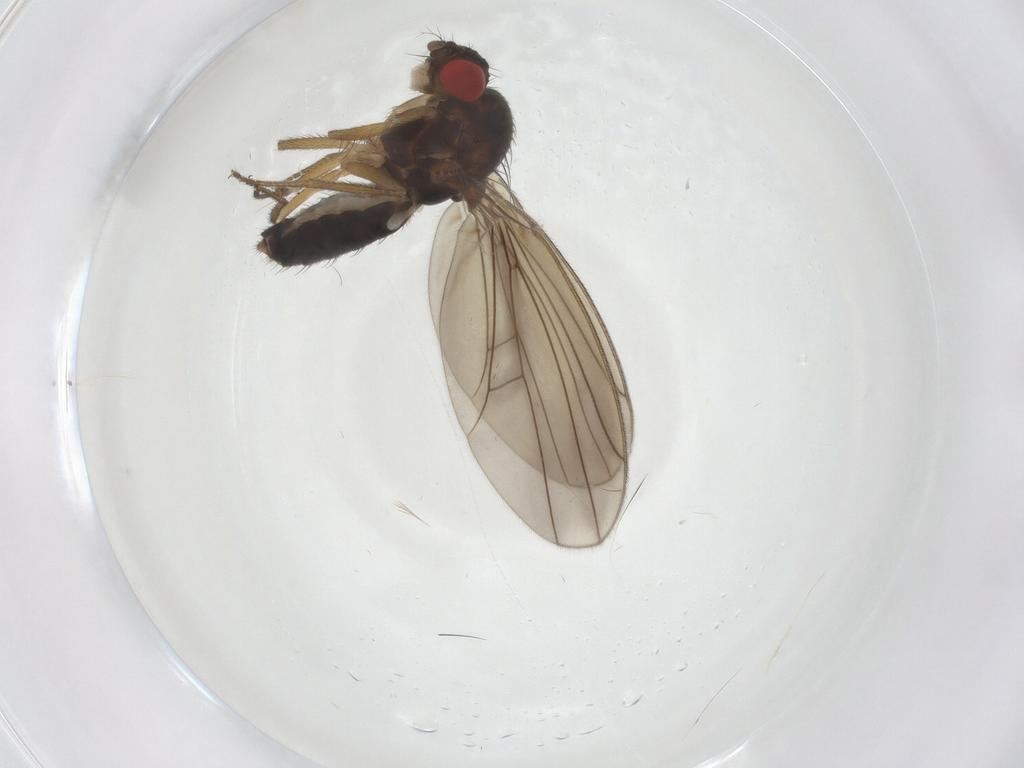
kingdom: Animalia
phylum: Arthropoda
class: Insecta
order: Diptera
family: Drosophilidae
